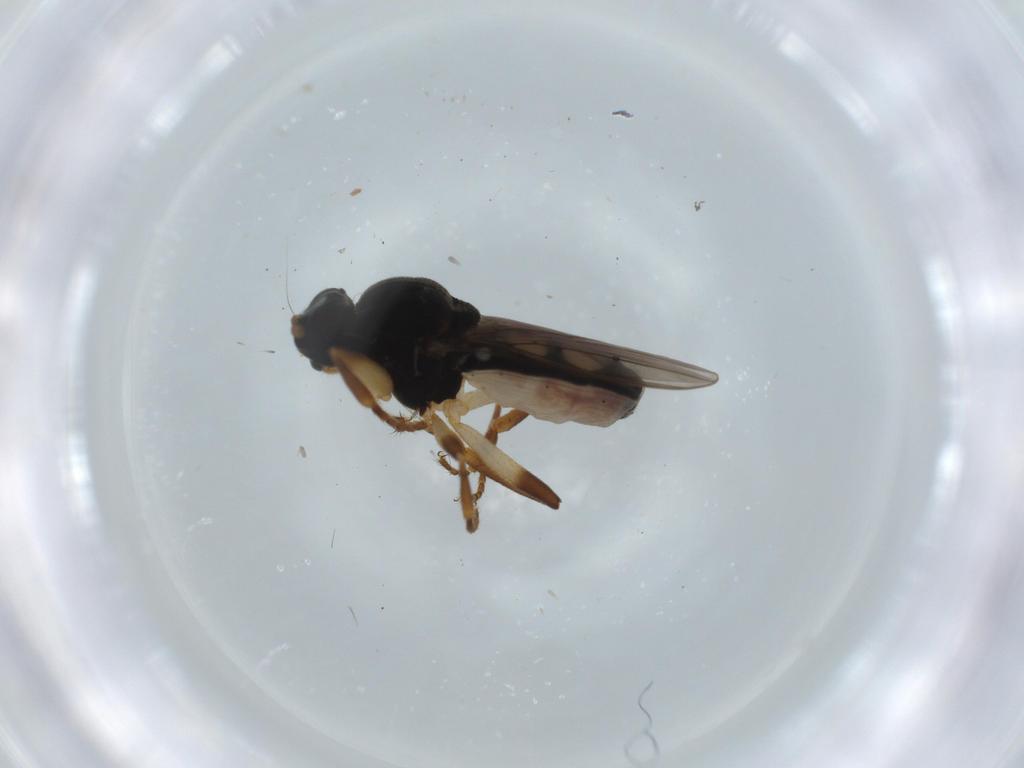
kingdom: Animalia
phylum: Arthropoda
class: Insecta
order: Diptera
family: Sphaeroceridae
